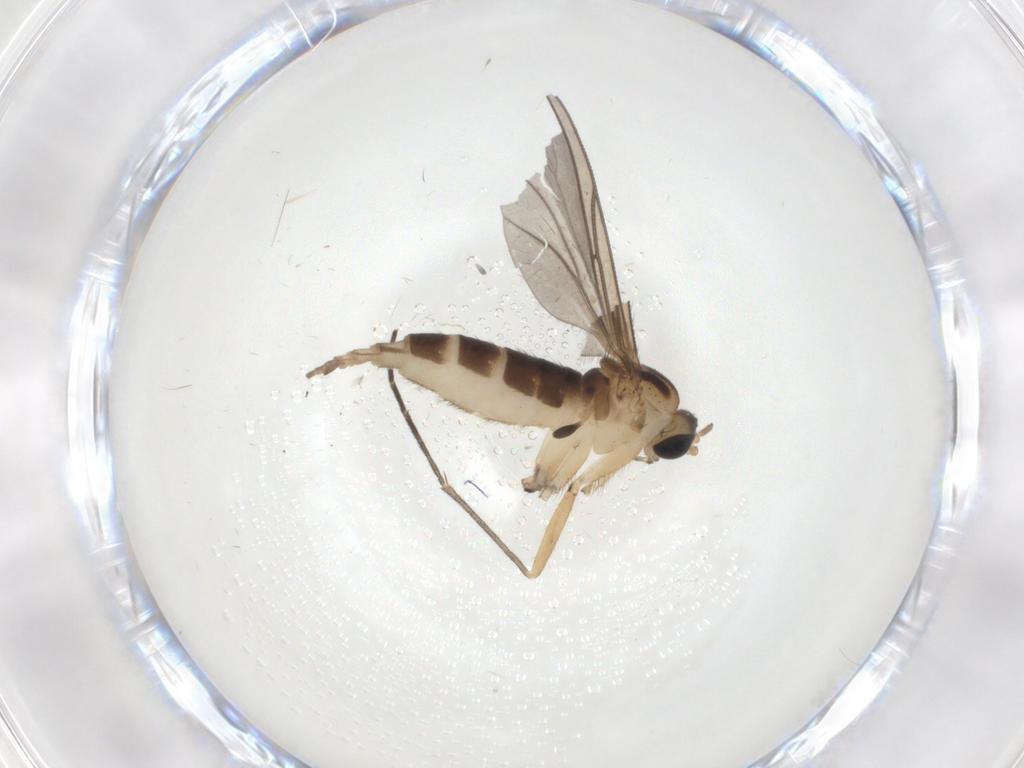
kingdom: Animalia
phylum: Arthropoda
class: Insecta
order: Diptera
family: Sciaridae
